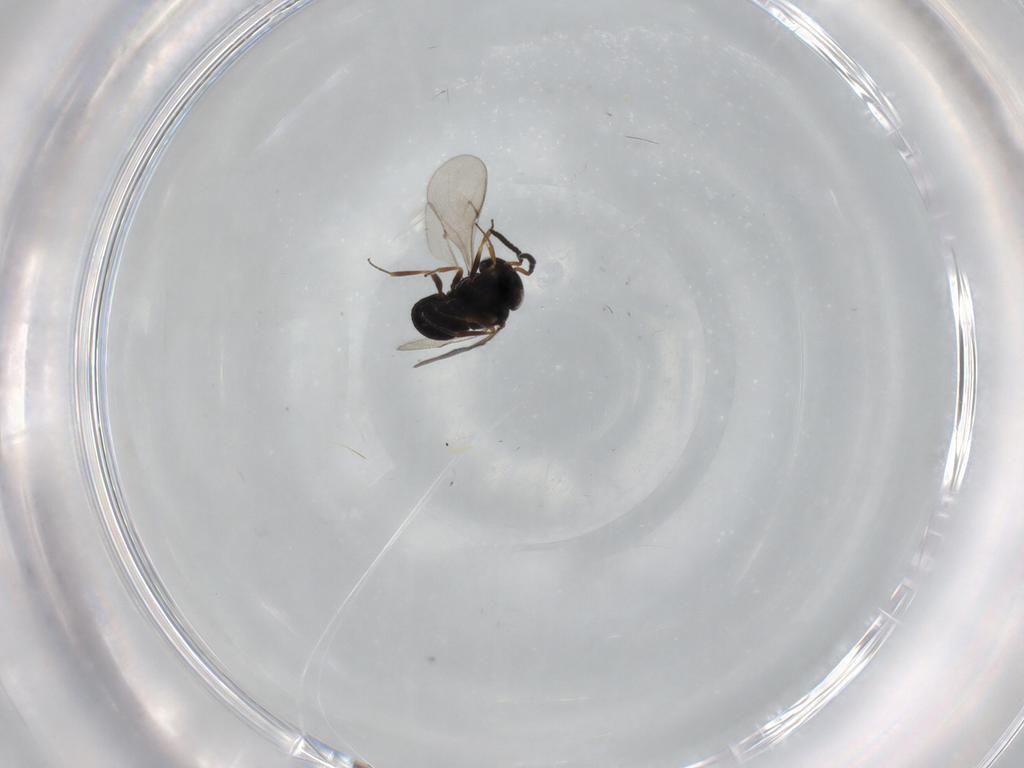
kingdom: Animalia
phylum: Arthropoda
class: Insecta
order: Hymenoptera
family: Scelionidae
